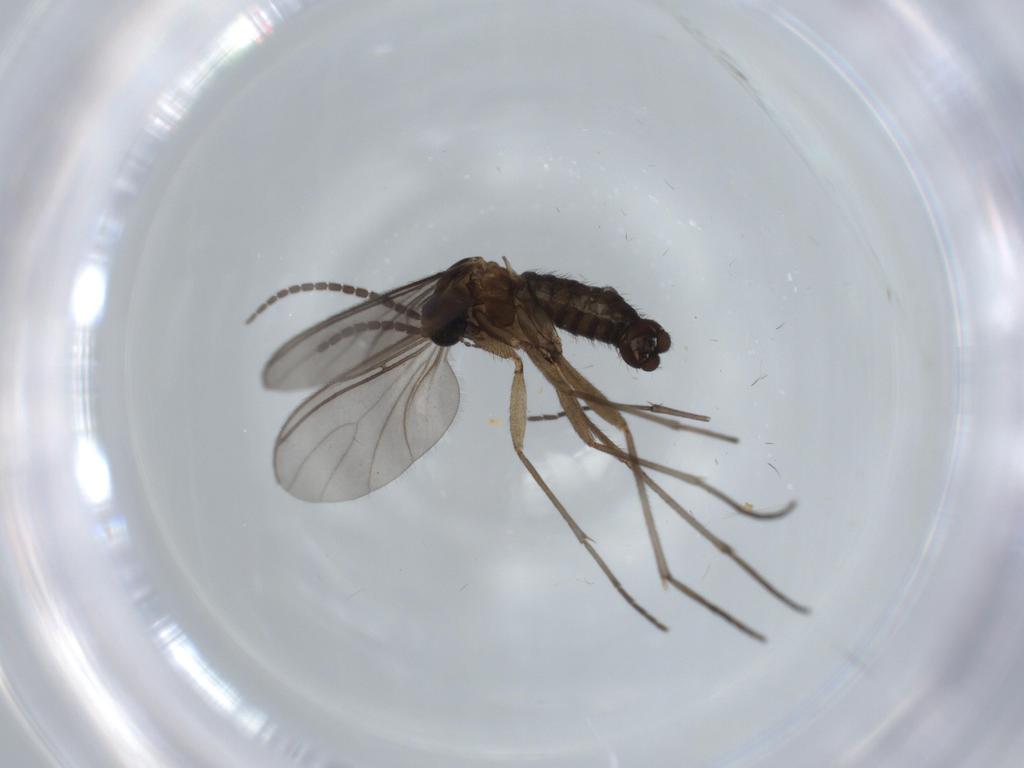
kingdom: Animalia
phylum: Arthropoda
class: Insecta
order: Diptera
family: Sciaridae
